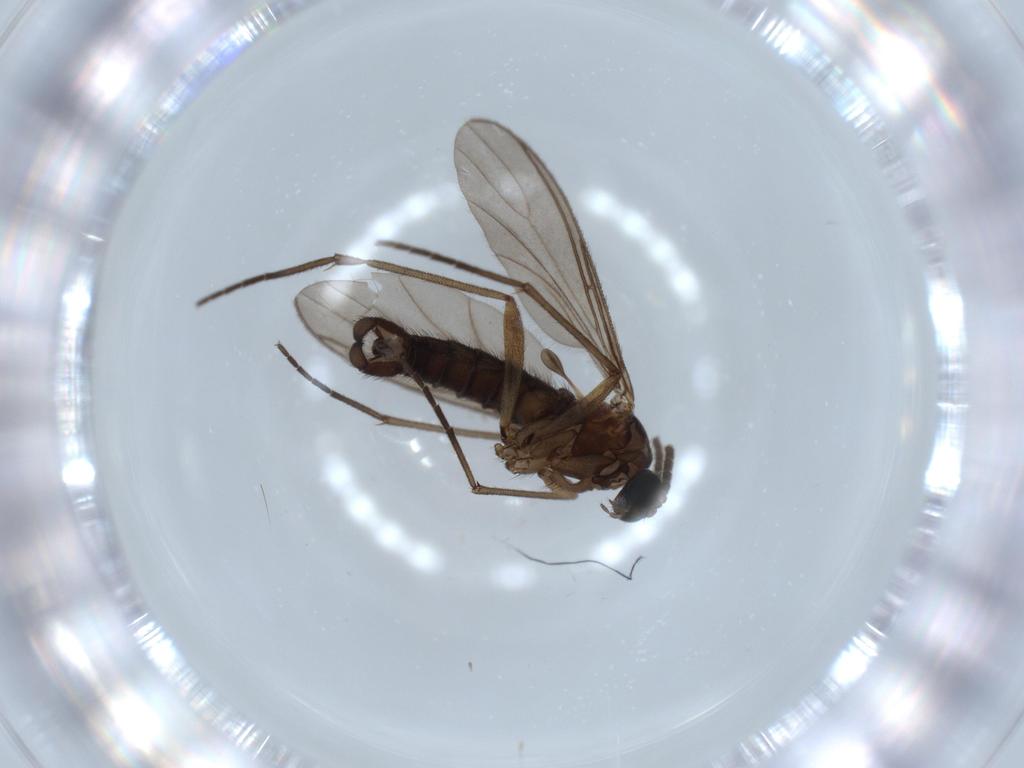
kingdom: Animalia
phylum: Arthropoda
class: Insecta
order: Diptera
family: Sciaridae
